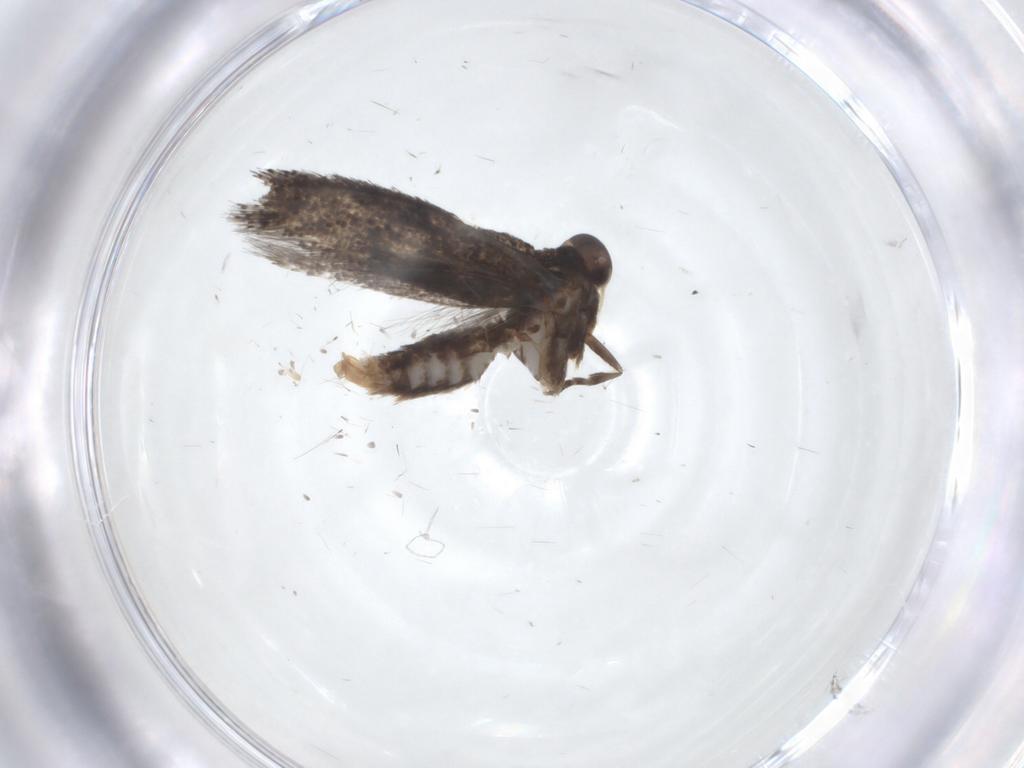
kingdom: Animalia
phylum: Arthropoda
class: Insecta
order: Lepidoptera
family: Elachistidae
